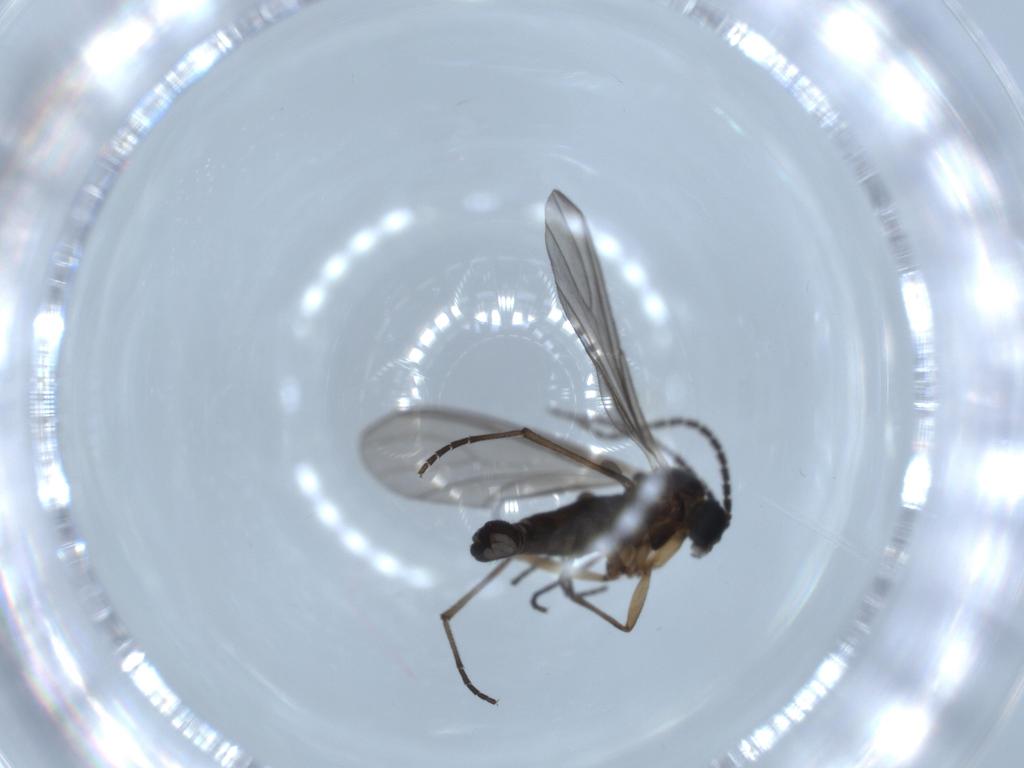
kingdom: Animalia
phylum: Arthropoda
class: Insecta
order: Diptera
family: Sciaridae
